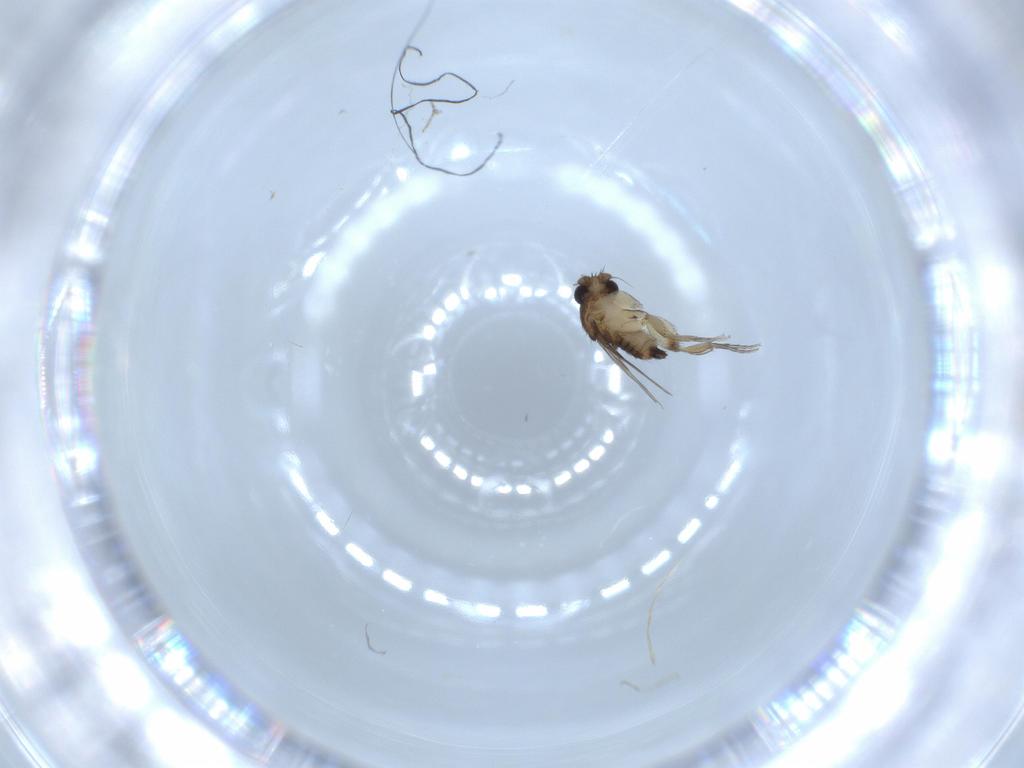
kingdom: Animalia
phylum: Arthropoda
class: Insecta
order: Diptera
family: Phoridae
